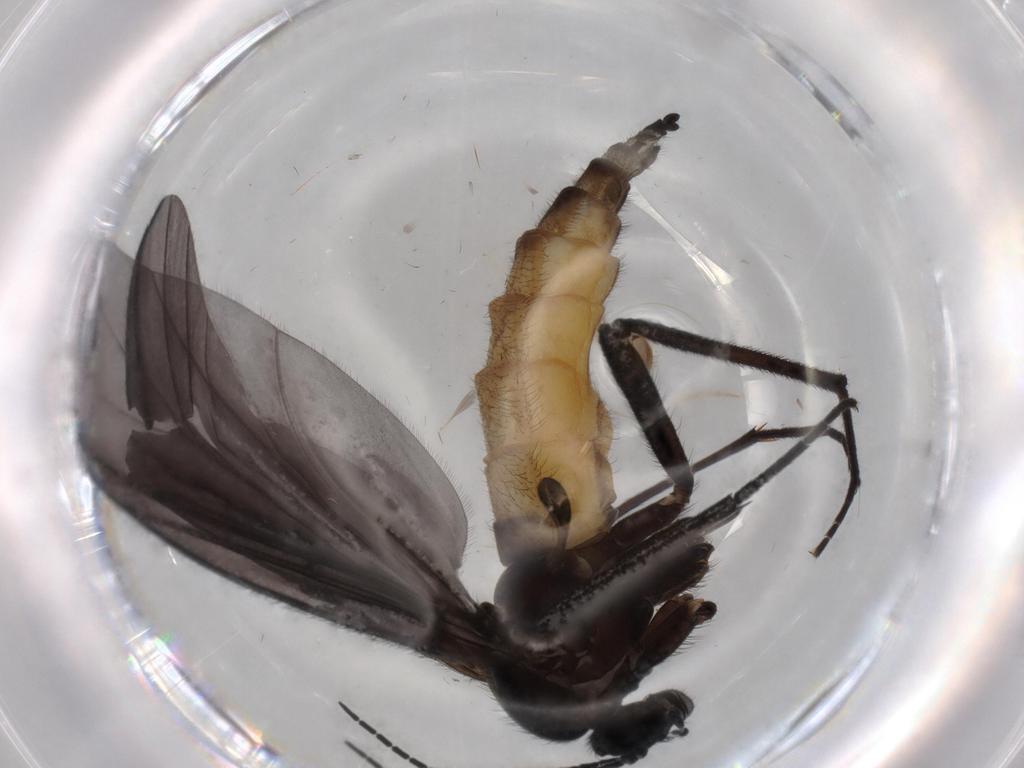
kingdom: Animalia
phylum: Arthropoda
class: Insecta
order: Diptera
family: Chironomidae
